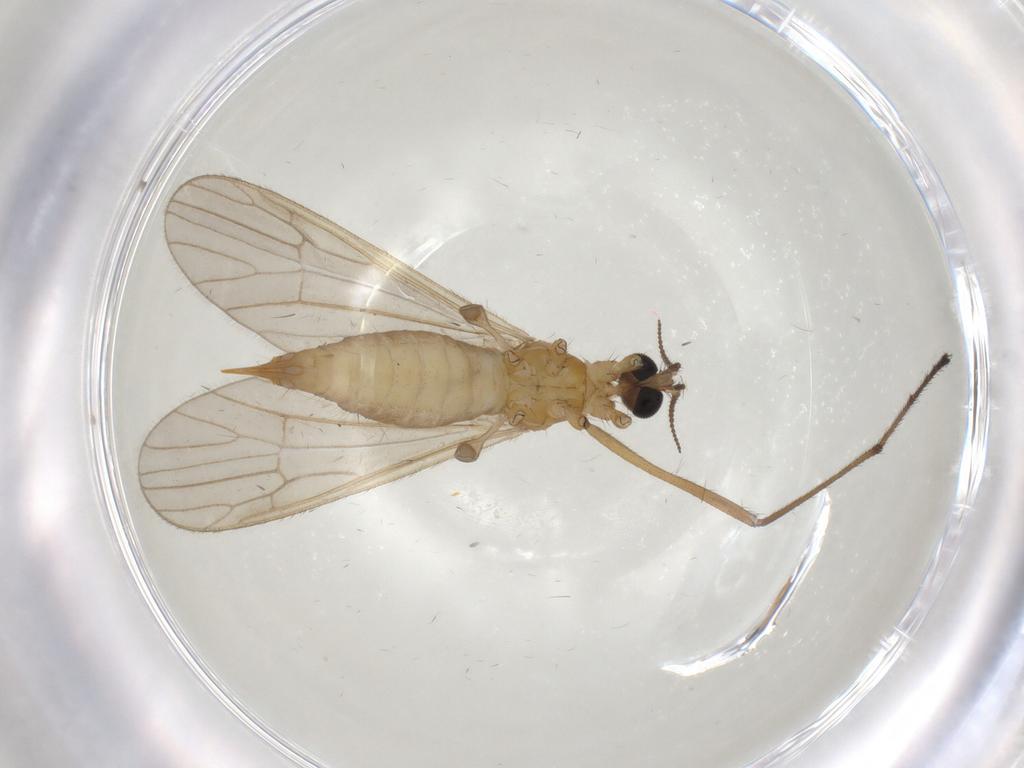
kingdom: Animalia
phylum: Arthropoda
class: Insecta
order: Diptera
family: Limoniidae
